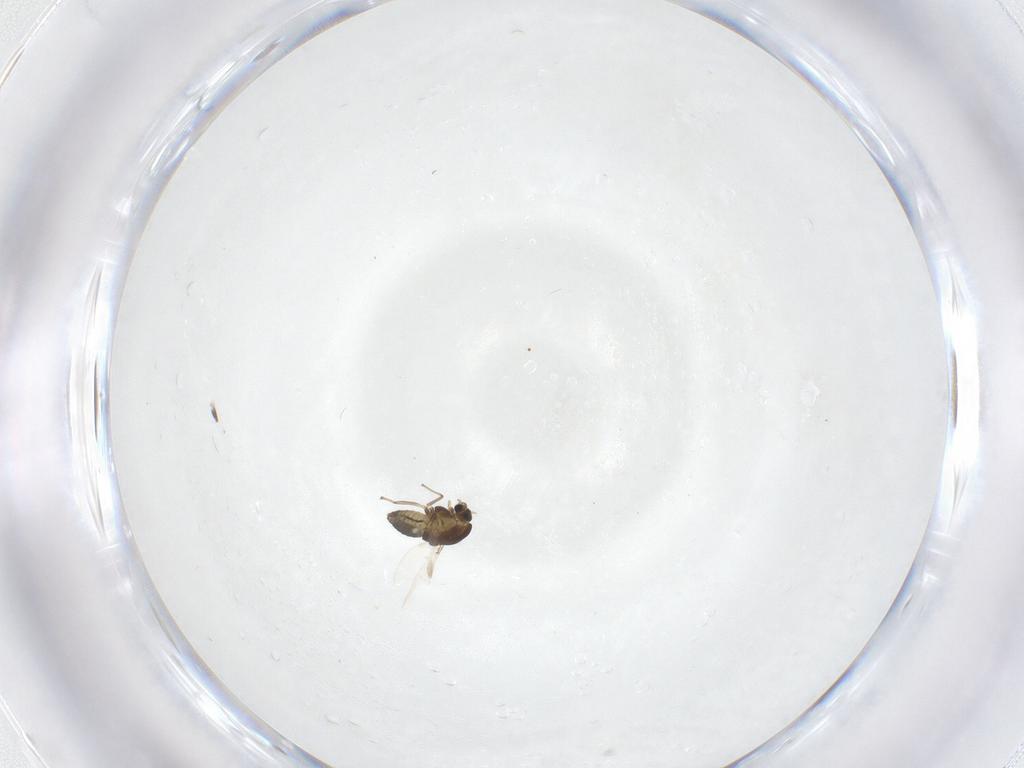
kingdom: Animalia
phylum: Arthropoda
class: Insecta
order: Diptera
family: Chironomidae
